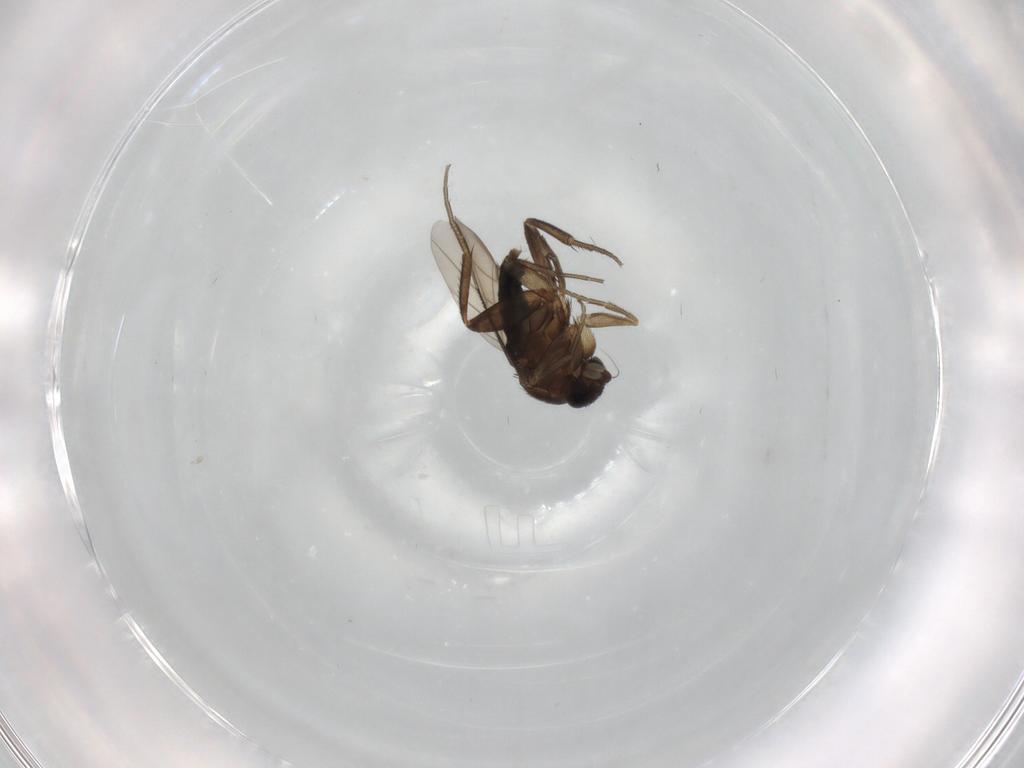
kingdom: Animalia
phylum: Arthropoda
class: Insecta
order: Diptera
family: Phoridae
